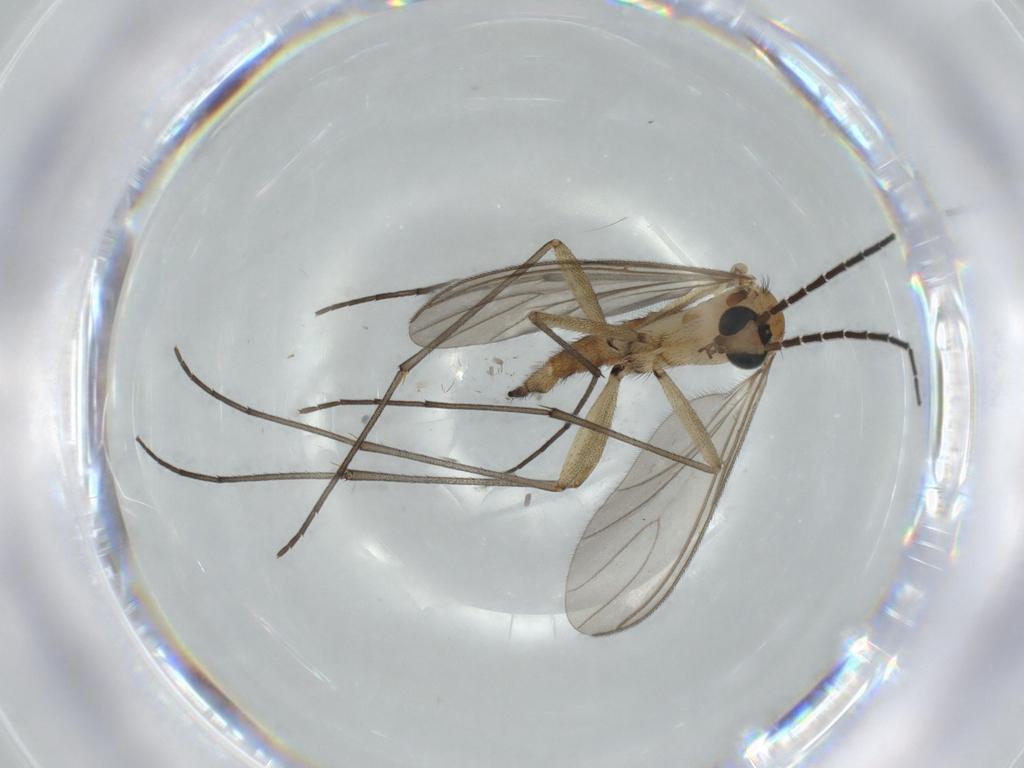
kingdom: Animalia
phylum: Arthropoda
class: Insecta
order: Diptera
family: Sciaridae
